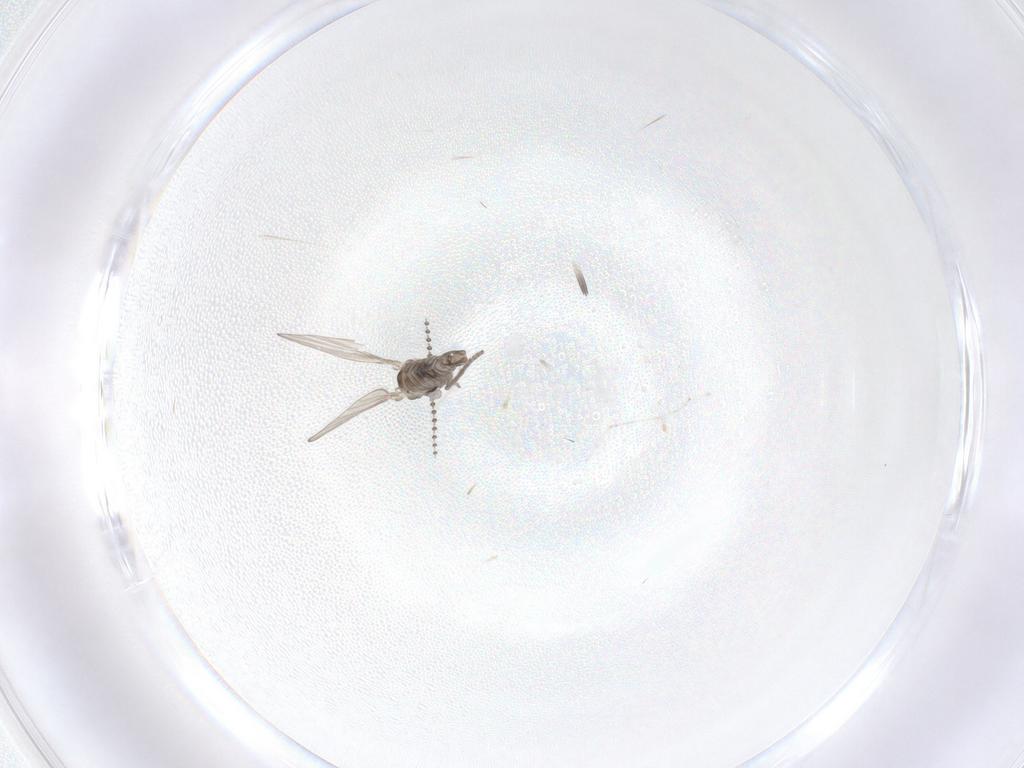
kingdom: Animalia
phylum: Arthropoda
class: Insecta
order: Diptera
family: Psychodidae
